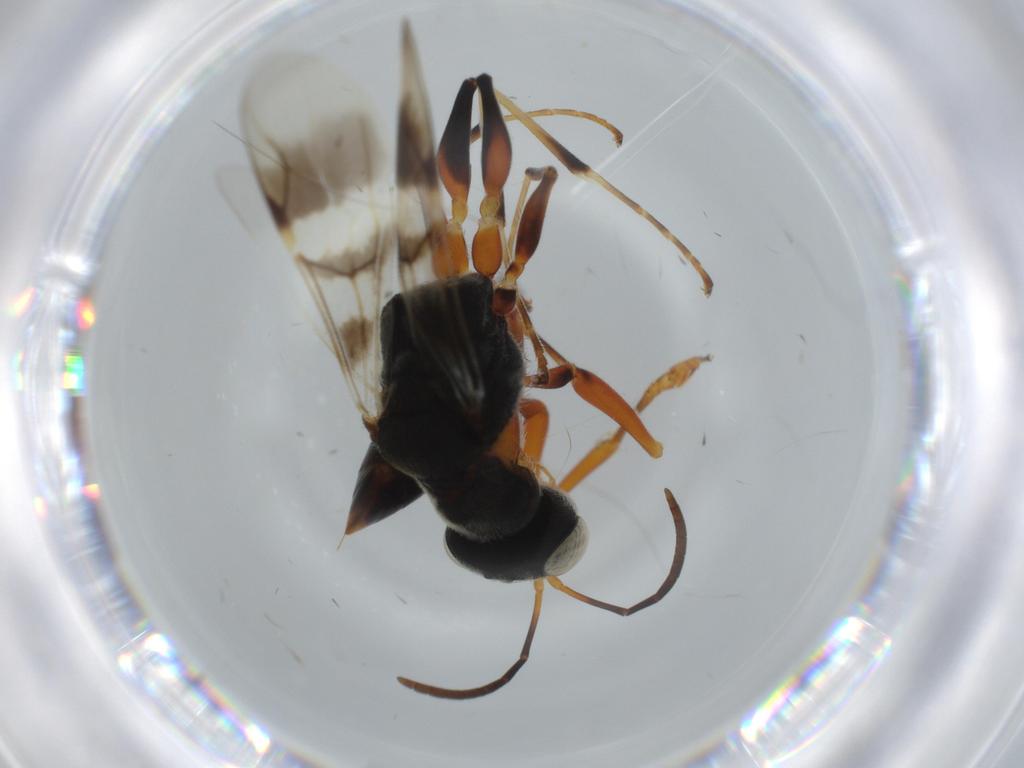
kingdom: Animalia
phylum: Arthropoda
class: Insecta
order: Hymenoptera
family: Dryinidae
